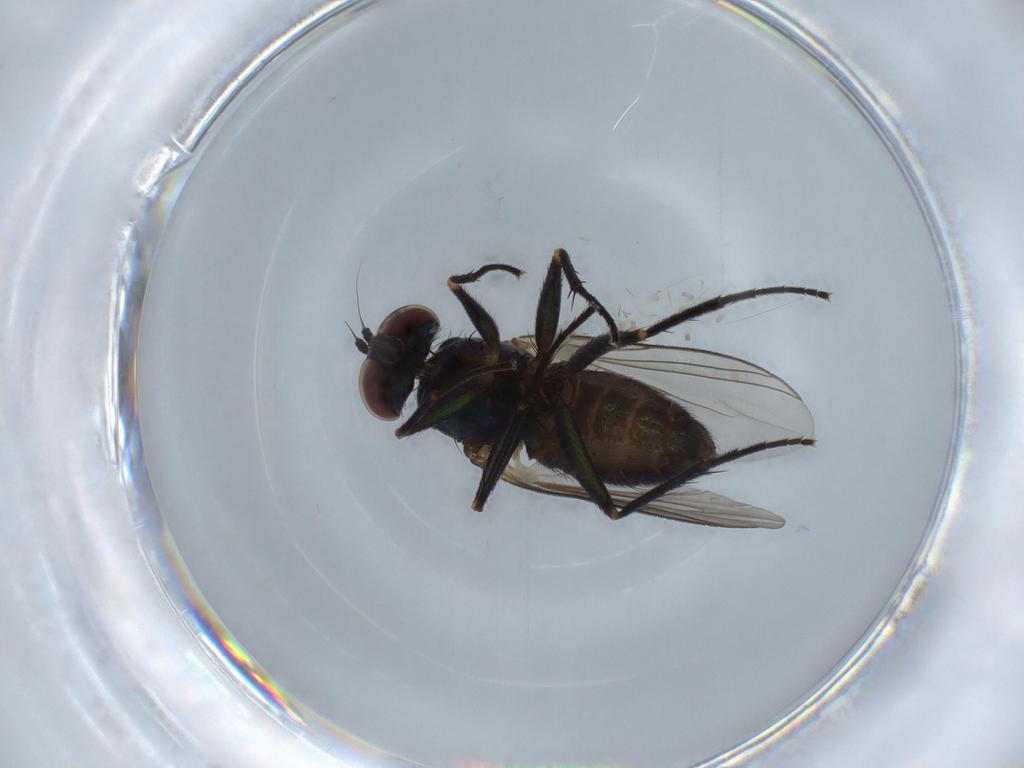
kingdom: Animalia
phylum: Arthropoda
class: Insecta
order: Diptera
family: Dolichopodidae
